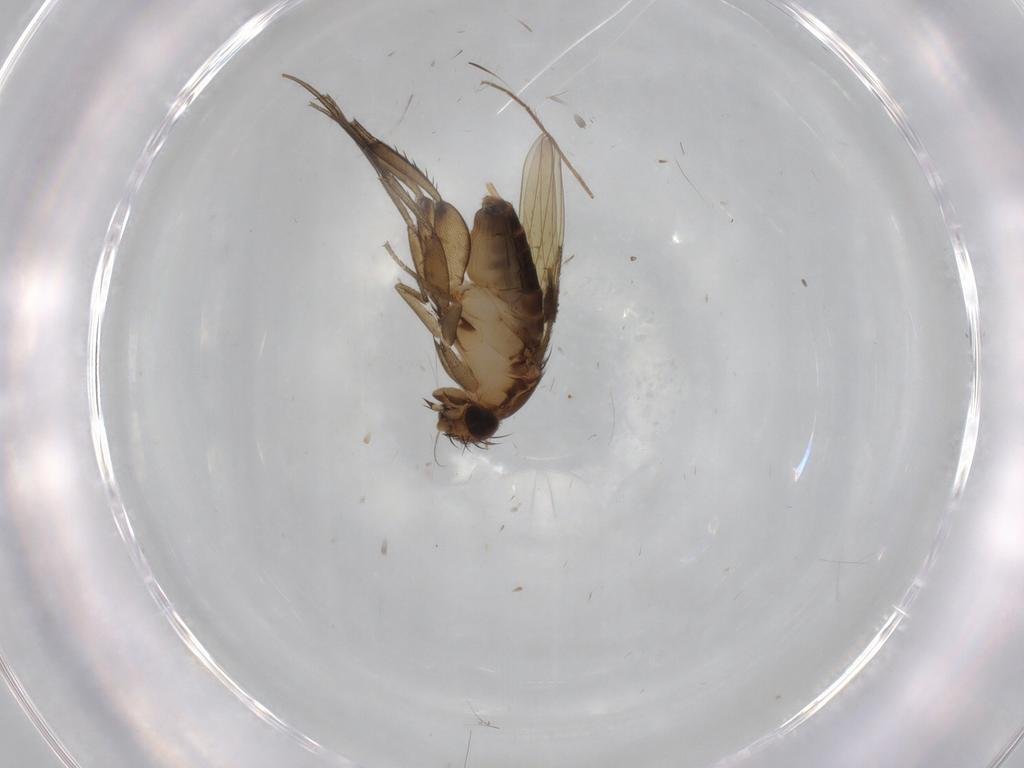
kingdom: Animalia
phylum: Arthropoda
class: Insecta
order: Diptera
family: Phoridae
